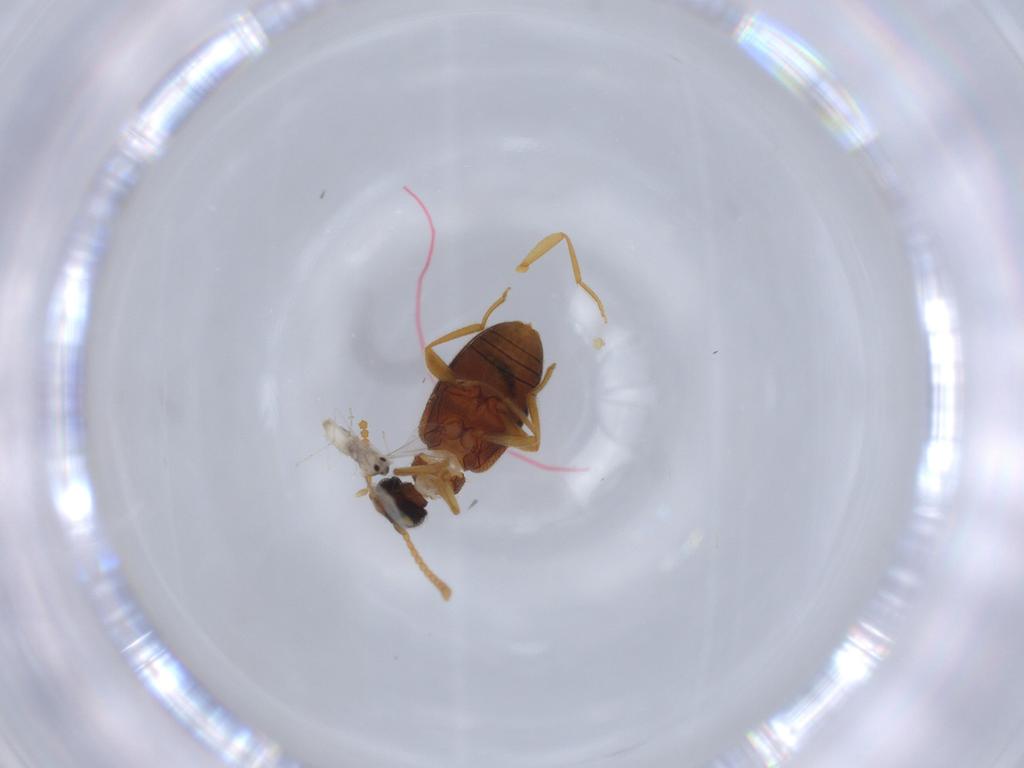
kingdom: Animalia
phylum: Arthropoda
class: Insecta
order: Coleoptera
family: Aderidae
